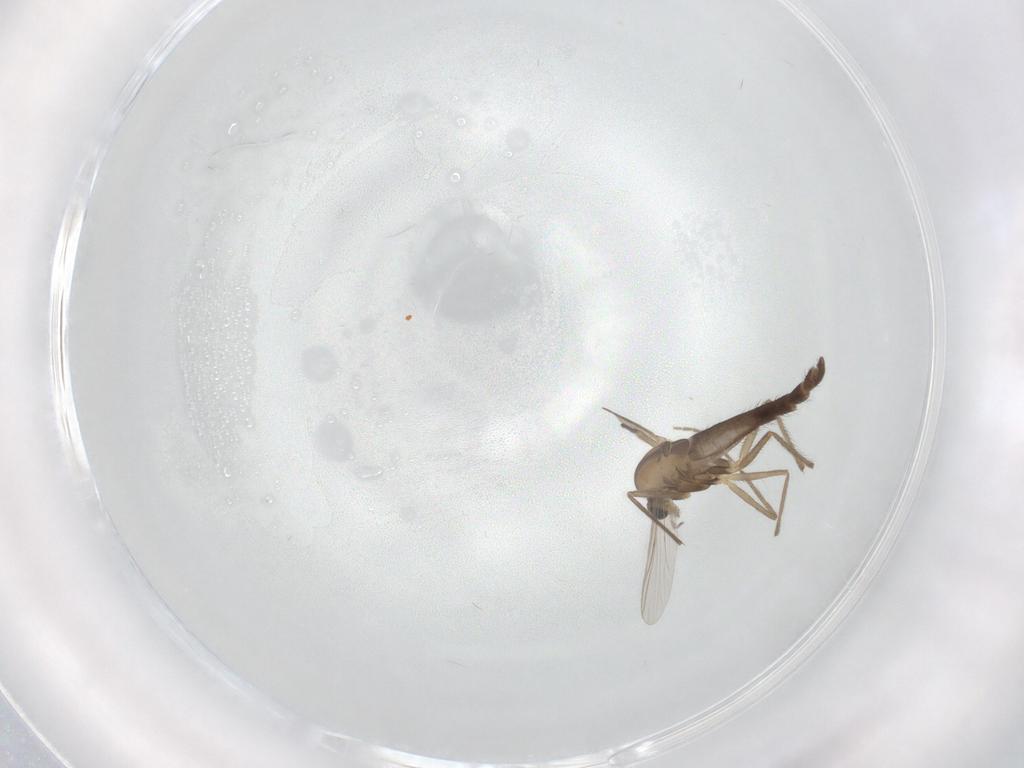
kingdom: Animalia
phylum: Arthropoda
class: Insecta
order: Diptera
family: Chironomidae
